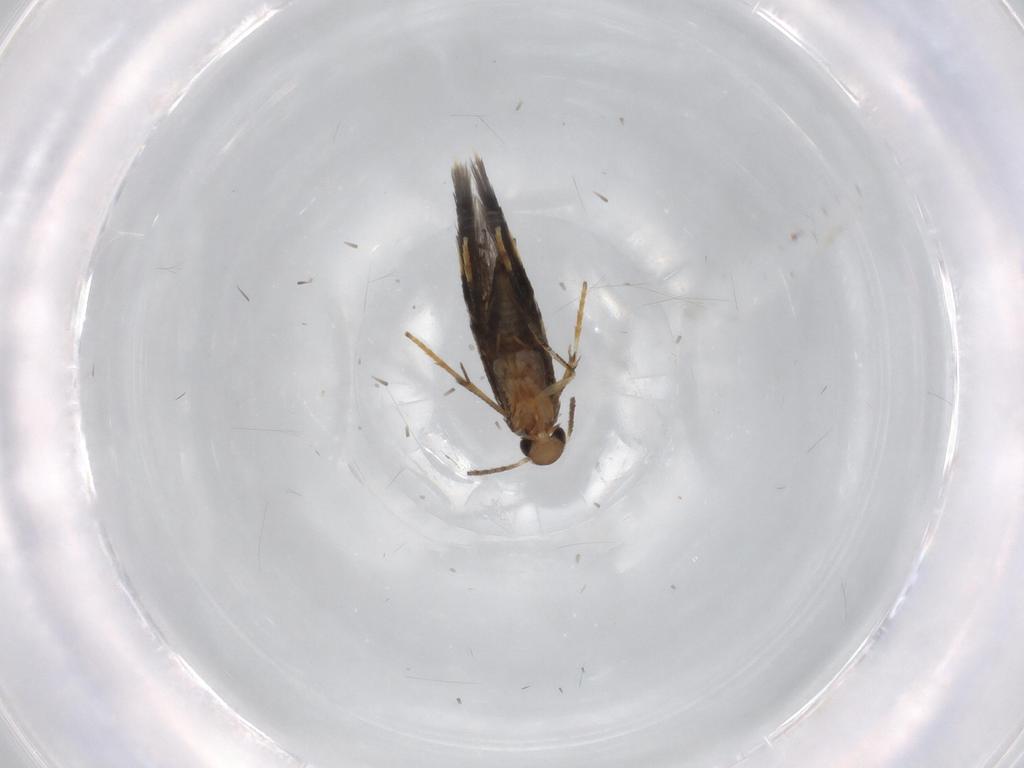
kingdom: Animalia
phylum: Arthropoda
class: Insecta
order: Lepidoptera
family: Heliozelidae
